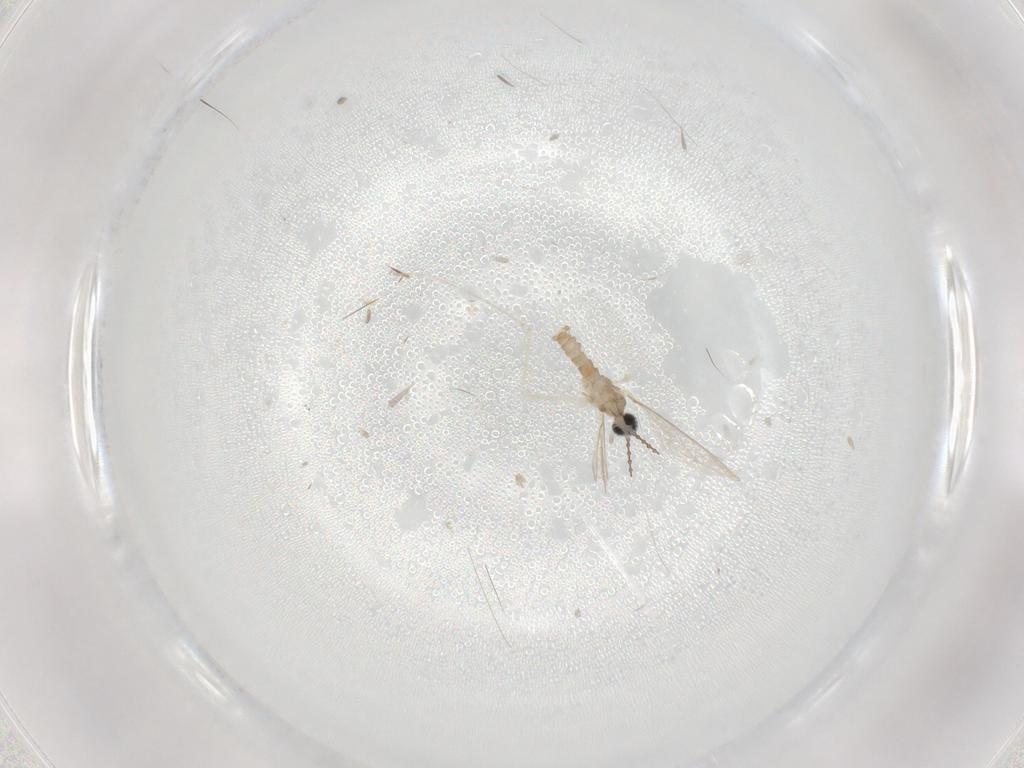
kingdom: Animalia
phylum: Arthropoda
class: Insecta
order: Diptera
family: Cecidomyiidae
